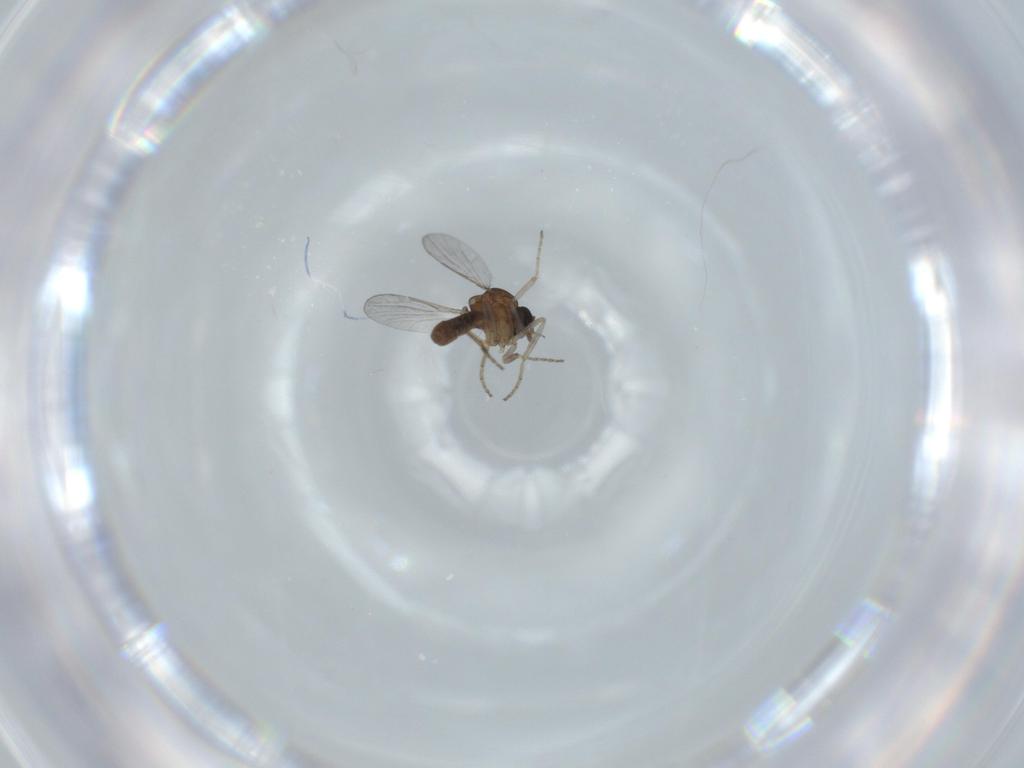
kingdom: Animalia
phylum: Arthropoda
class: Insecta
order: Diptera
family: Ceratopogonidae
